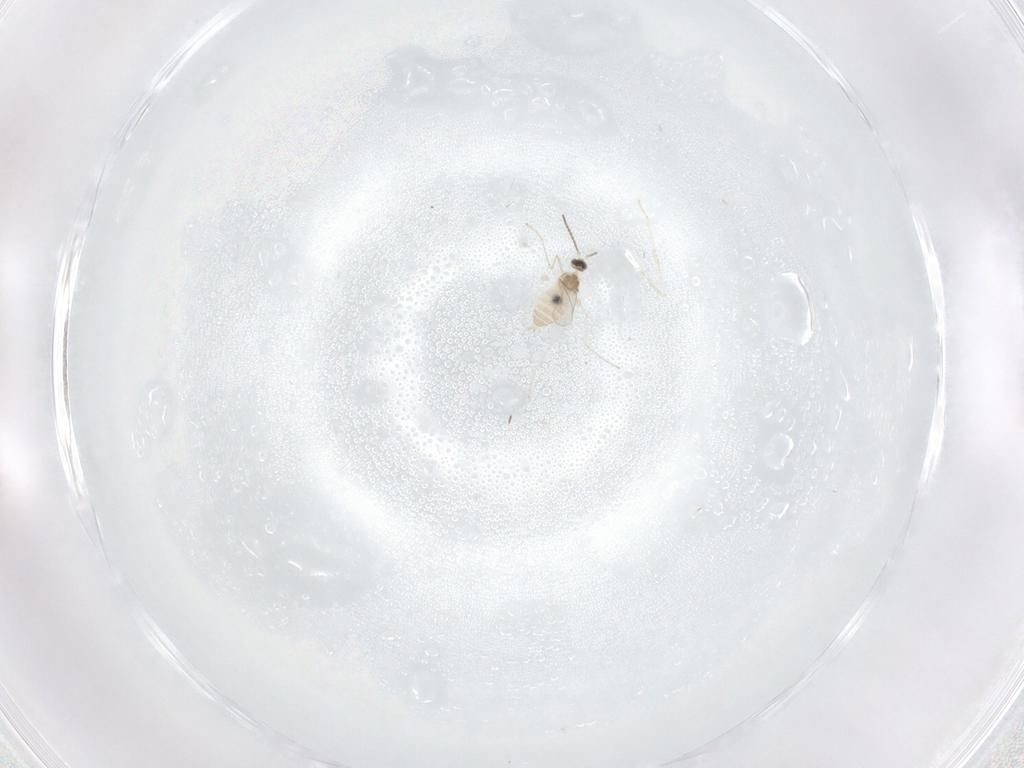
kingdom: Animalia
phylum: Arthropoda
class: Insecta
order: Diptera
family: Cecidomyiidae
